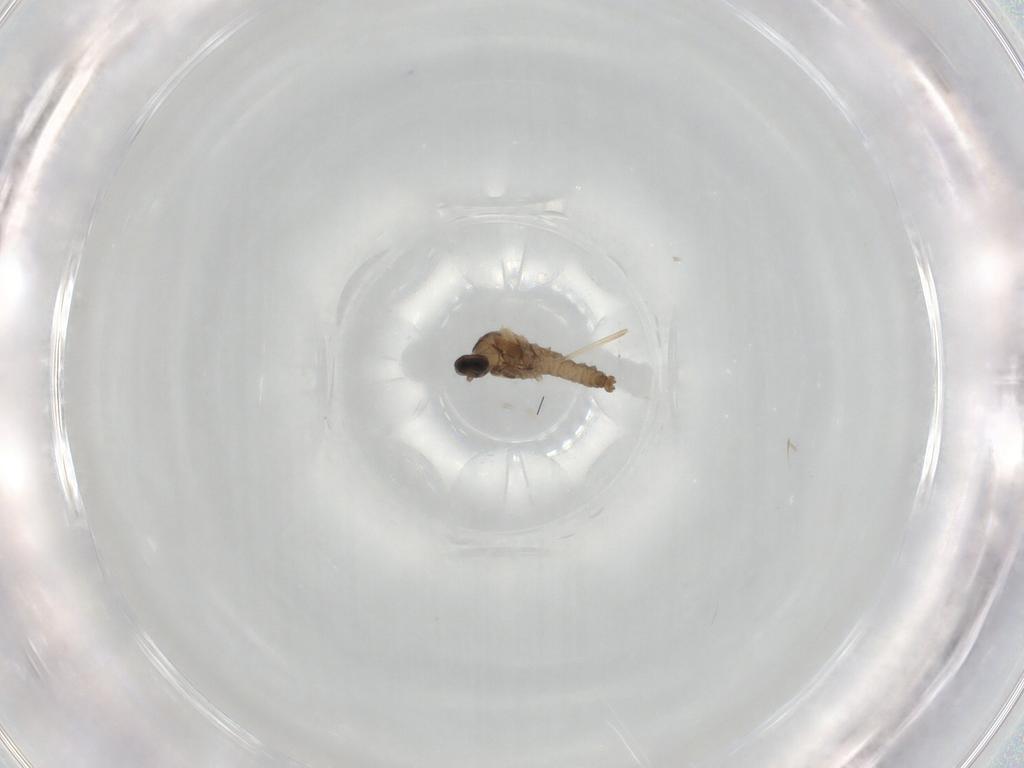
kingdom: Animalia
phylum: Arthropoda
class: Insecta
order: Diptera
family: Cecidomyiidae
